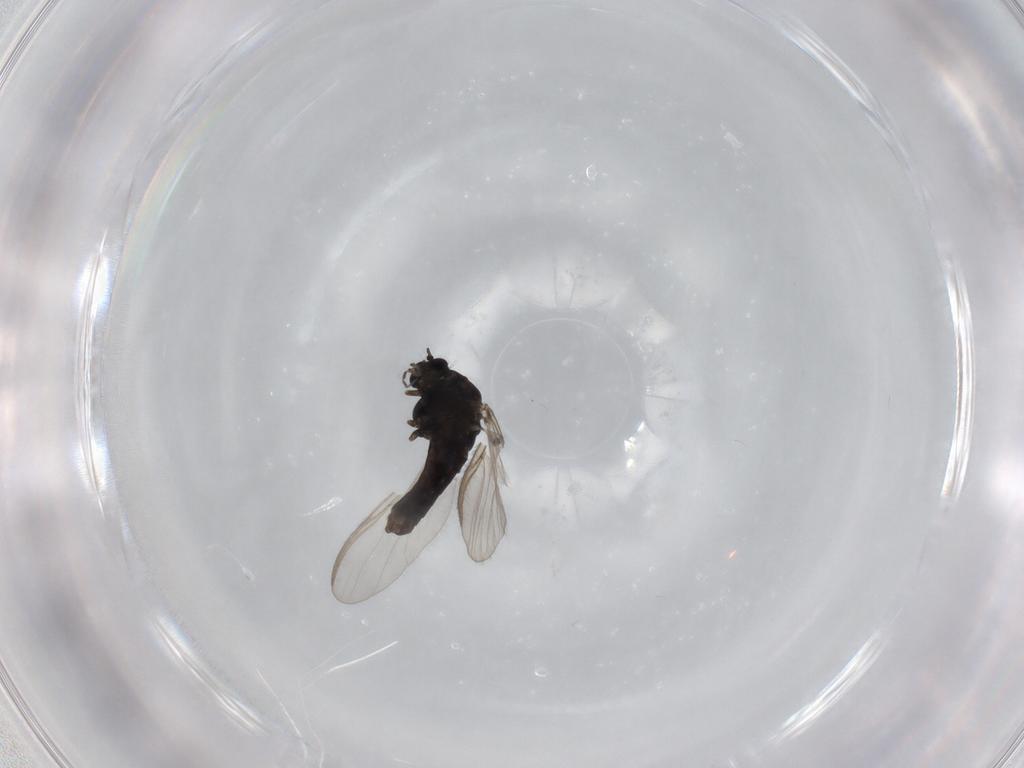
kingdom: Animalia
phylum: Arthropoda
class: Insecta
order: Diptera
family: Chironomidae
